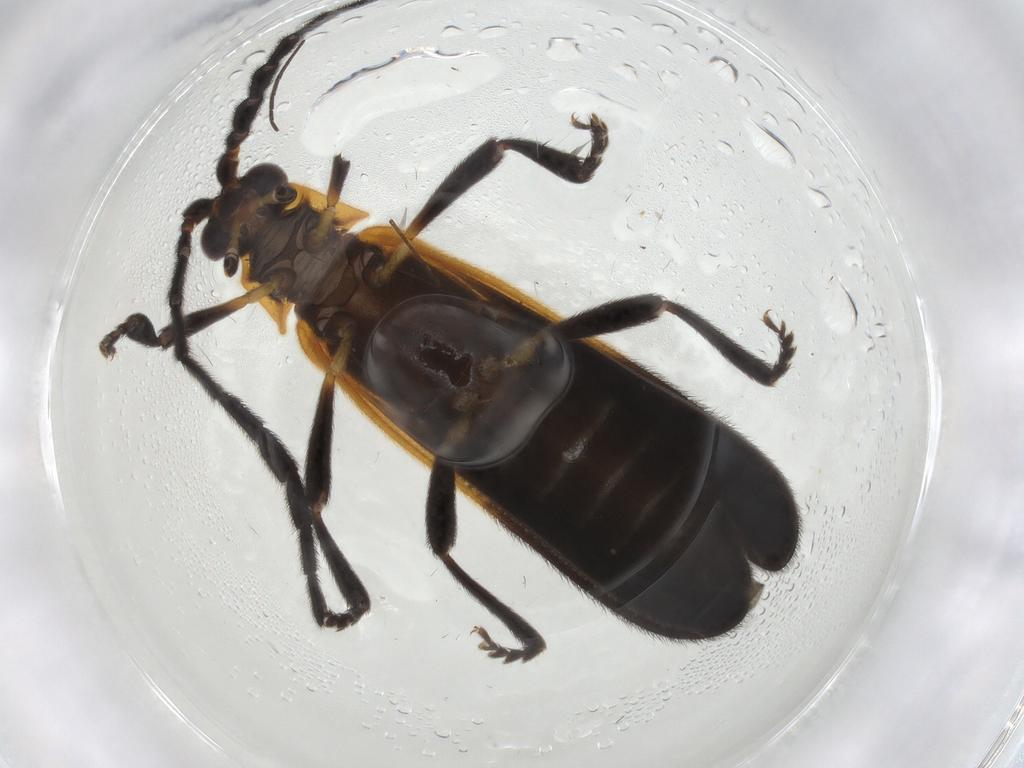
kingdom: Animalia
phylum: Arthropoda
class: Insecta
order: Coleoptera
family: Lycidae
